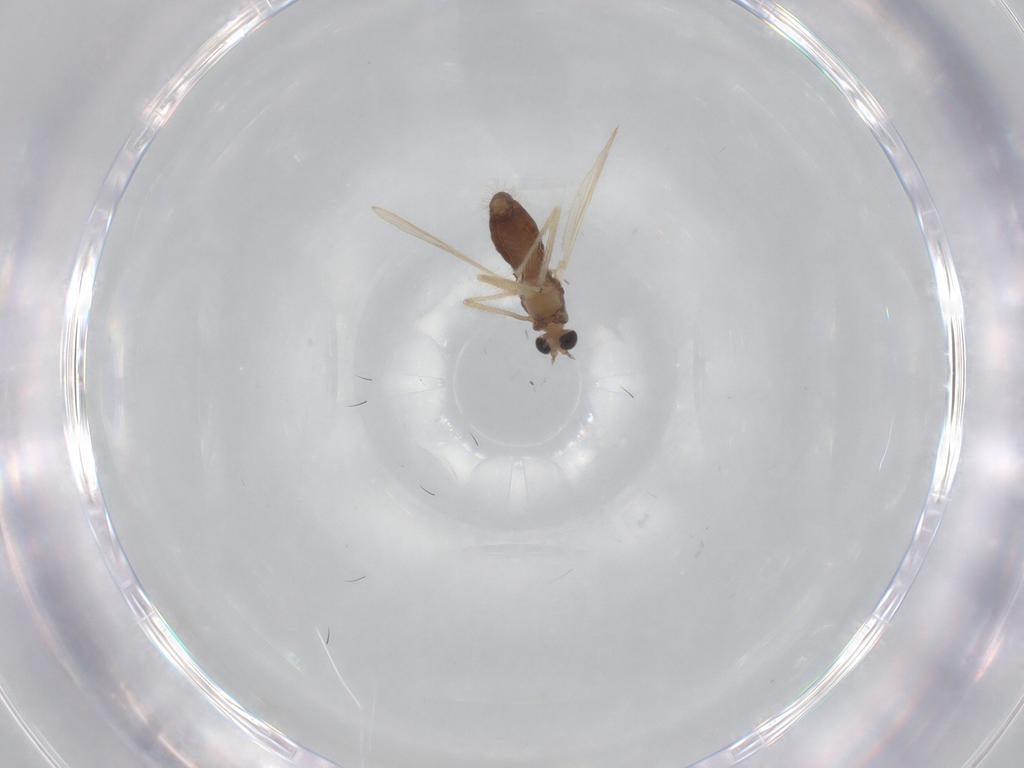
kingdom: Animalia
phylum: Arthropoda
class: Insecta
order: Diptera
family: Chironomidae
